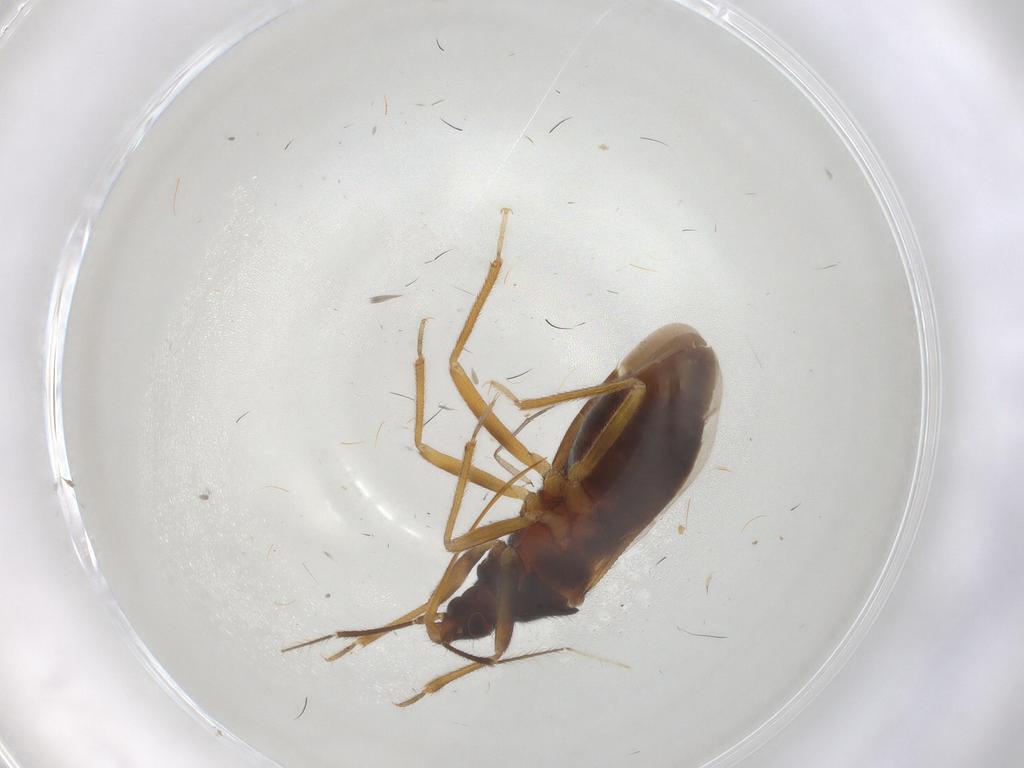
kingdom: Animalia
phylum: Arthropoda
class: Insecta
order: Diptera
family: Sciaridae
